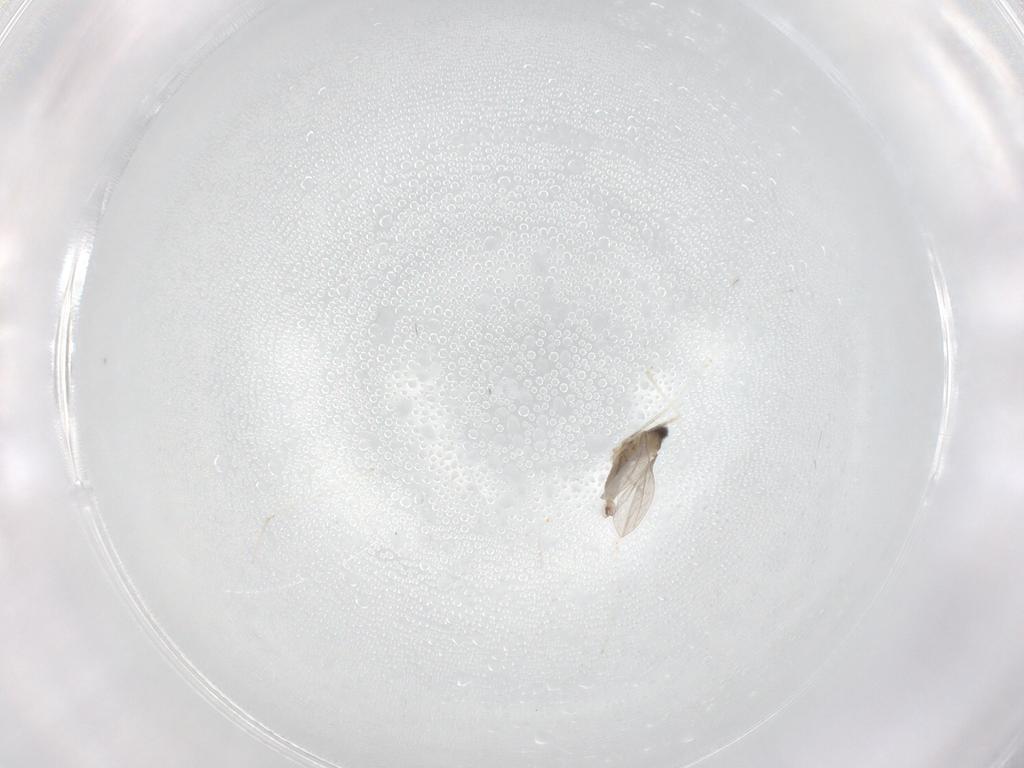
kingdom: Animalia
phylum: Arthropoda
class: Insecta
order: Diptera
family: Cecidomyiidae
